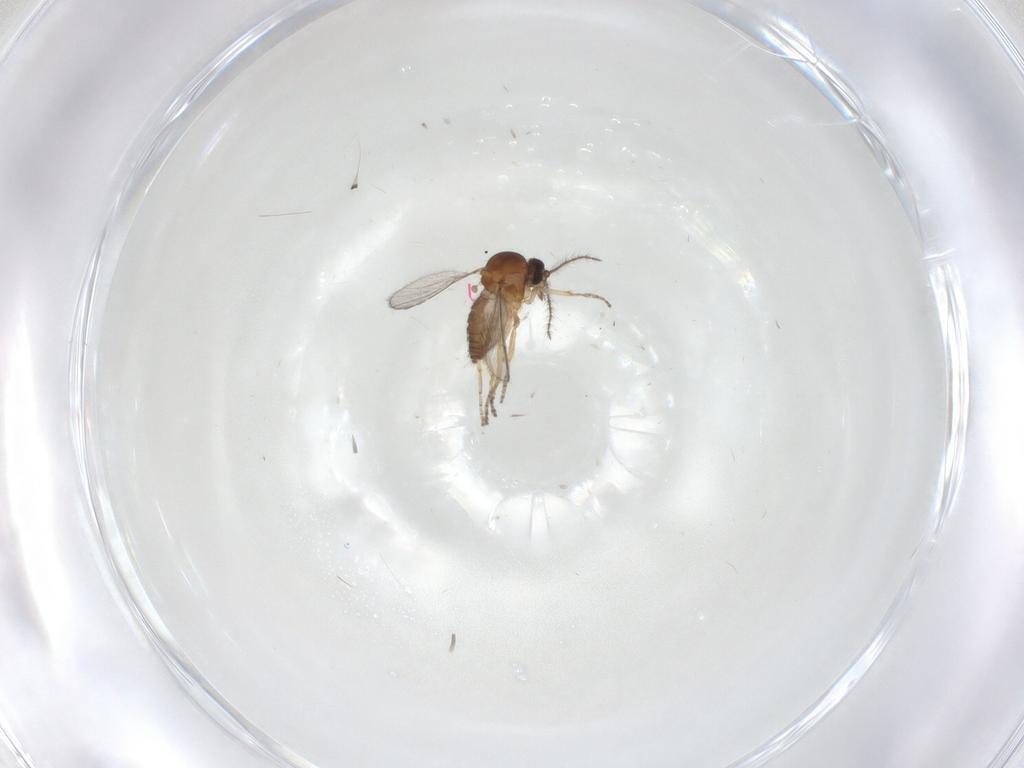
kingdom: Animalia
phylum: Arthropoda
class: Insecta
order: Diptera
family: Ceratopogonidae
